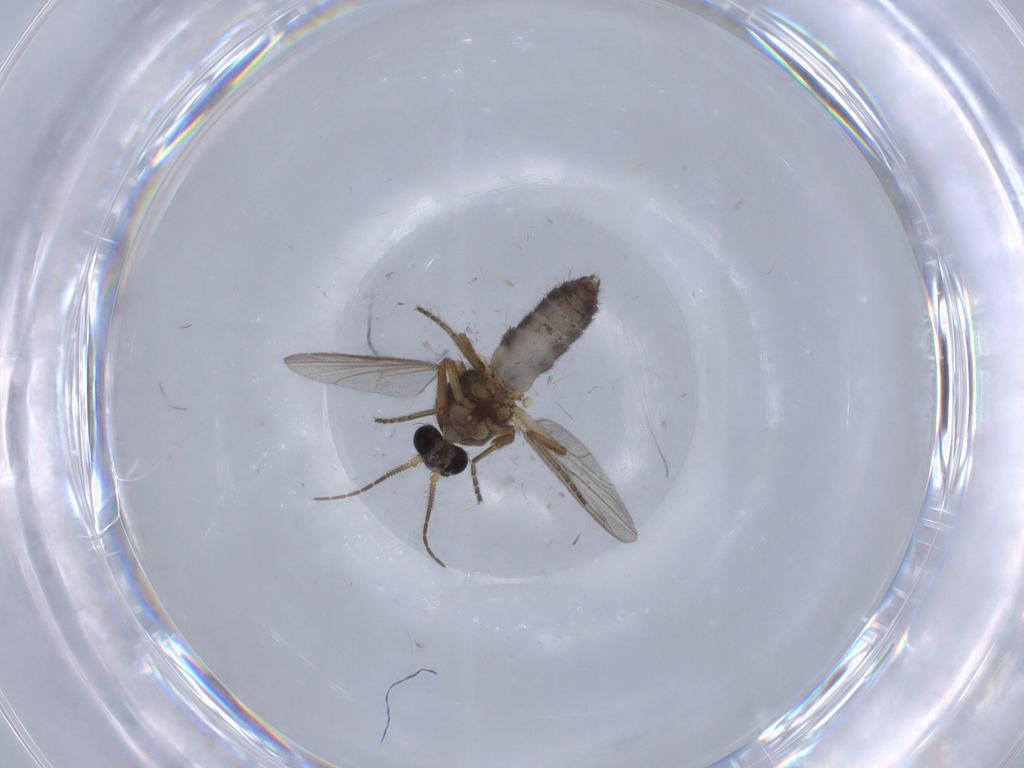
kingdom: Animalia
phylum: Arthropoda
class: Insecta
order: Diptera
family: Ceratopogonidae
